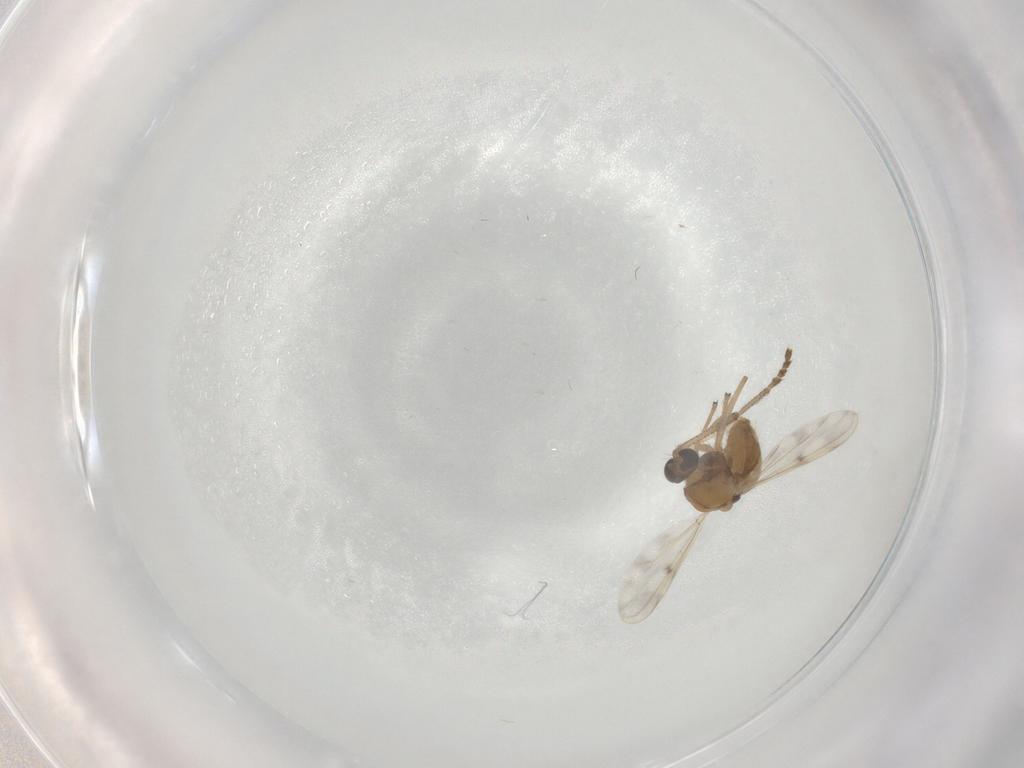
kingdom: Animalia
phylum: Arthropoda
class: Insecta
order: Diptera
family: Chironomidae
